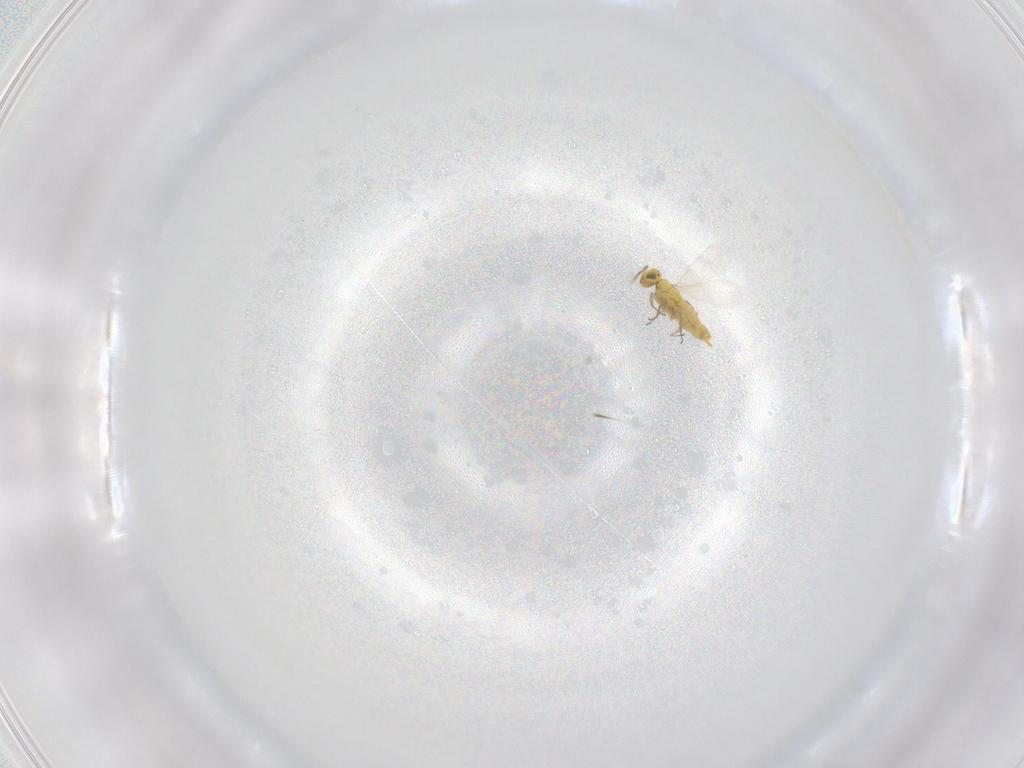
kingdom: Animalia
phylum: Arthropoda
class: Insecta
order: Hymenoptera
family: Aphelinidae
